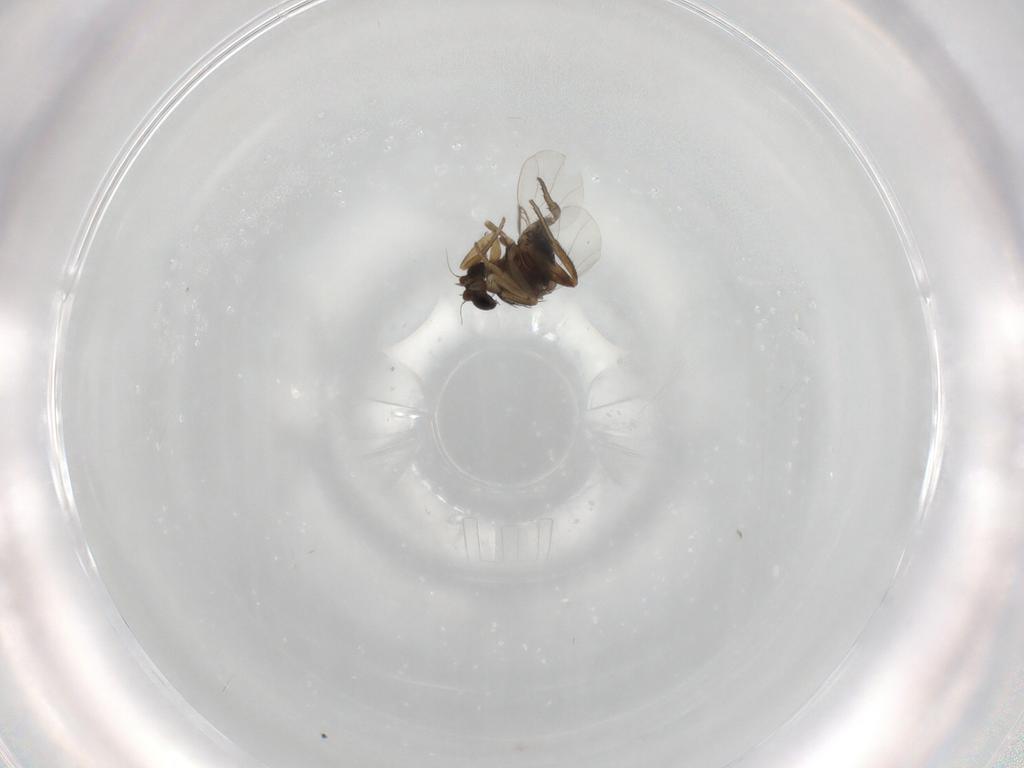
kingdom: Animalia
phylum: Arthropoda
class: Insecta
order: Diptera
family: Phoridae
